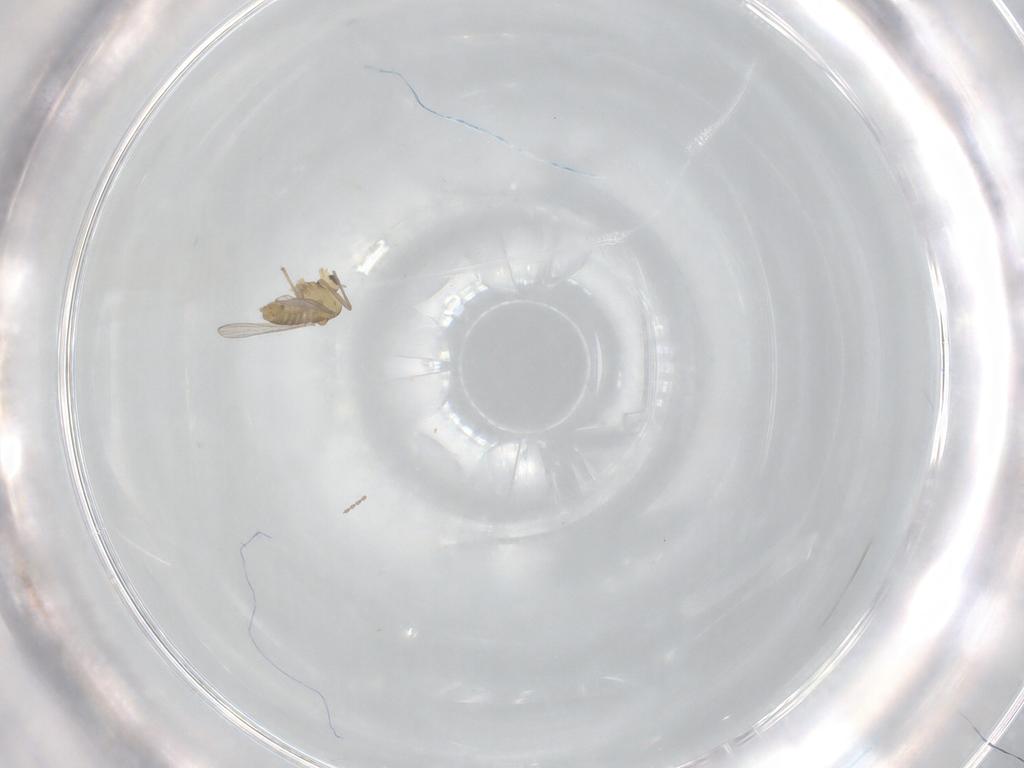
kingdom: Animalia
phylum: Arthropoda
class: Insecta
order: Diptera
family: Chironomidae
